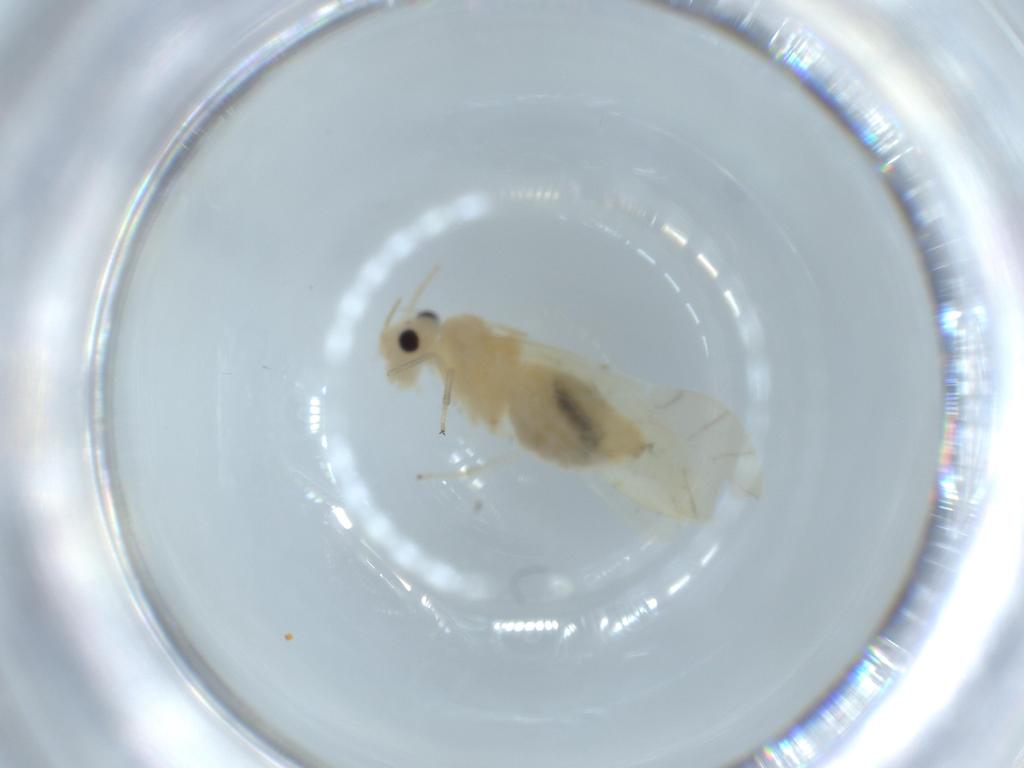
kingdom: Animalia
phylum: Arthropoda
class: Insecta
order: Psocodea
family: Caeciliusidae
